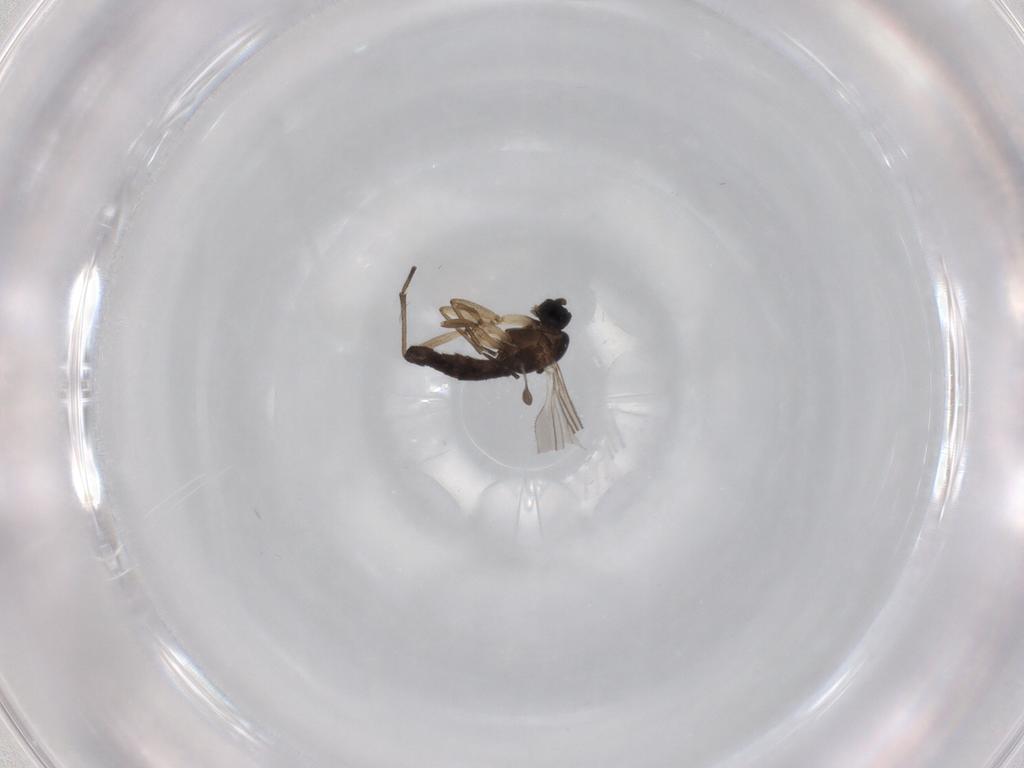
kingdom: Animalia
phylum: Arthropoda
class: Insecta
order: Diptera
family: Sciaridae
